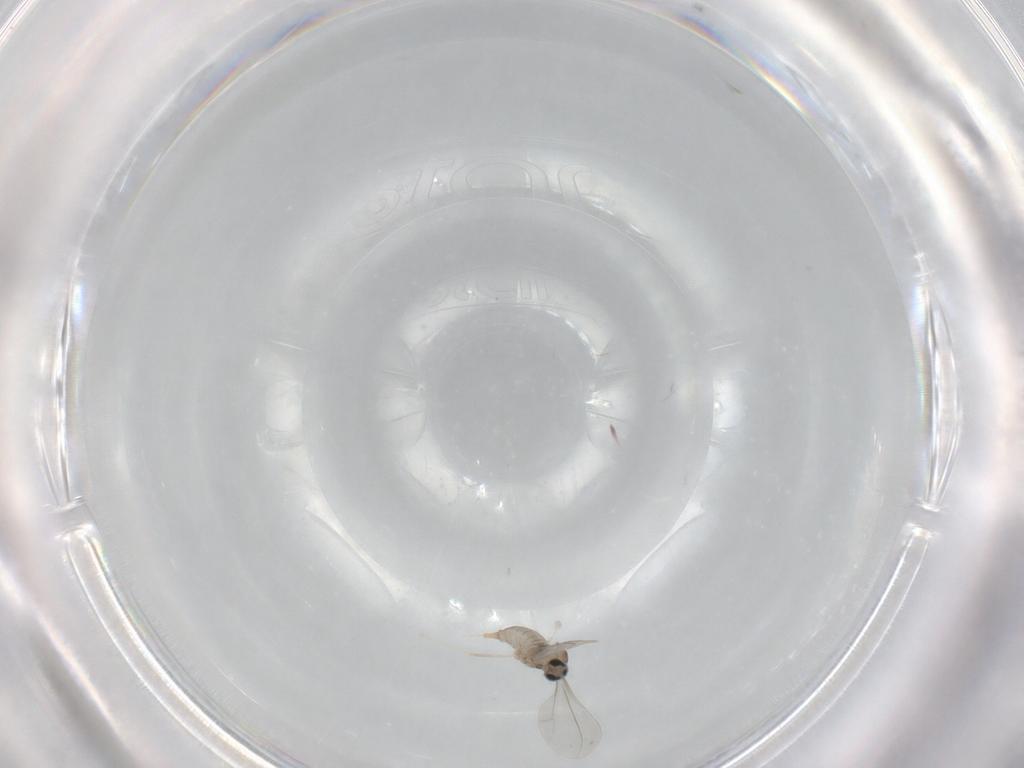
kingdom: Animalia
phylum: Arthropoda
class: Insecta
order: Diptera
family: Cecidomyiidae
